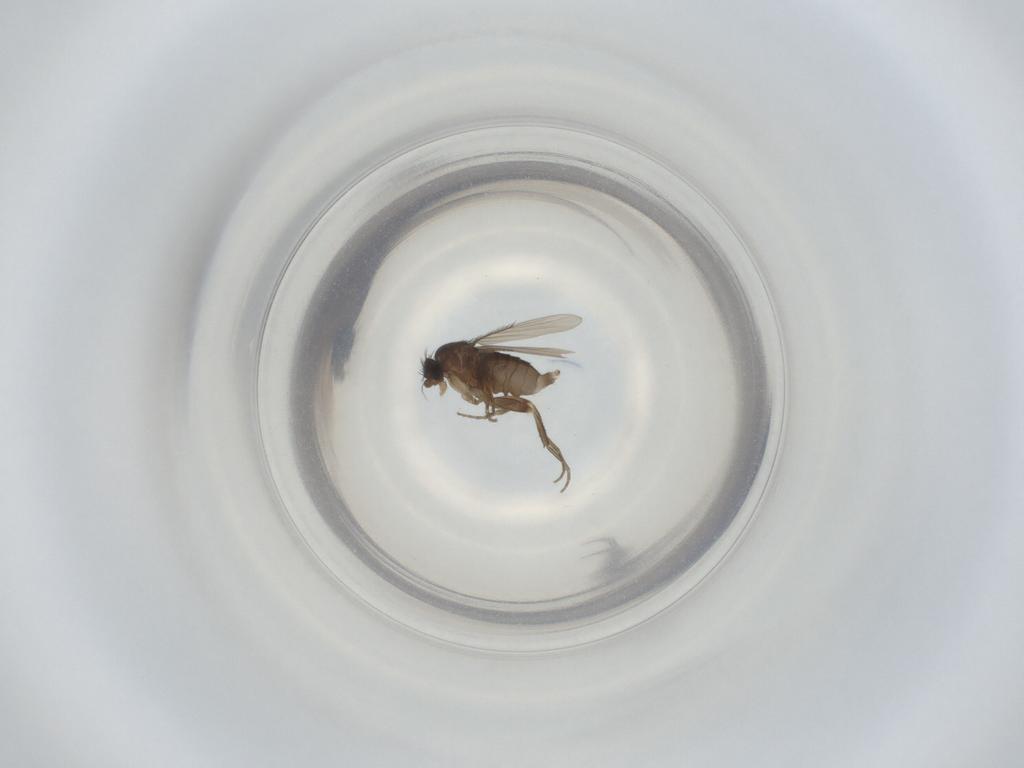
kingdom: Animalia
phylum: Arthropoda
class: Insecta
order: Diptera
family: Phoridae
